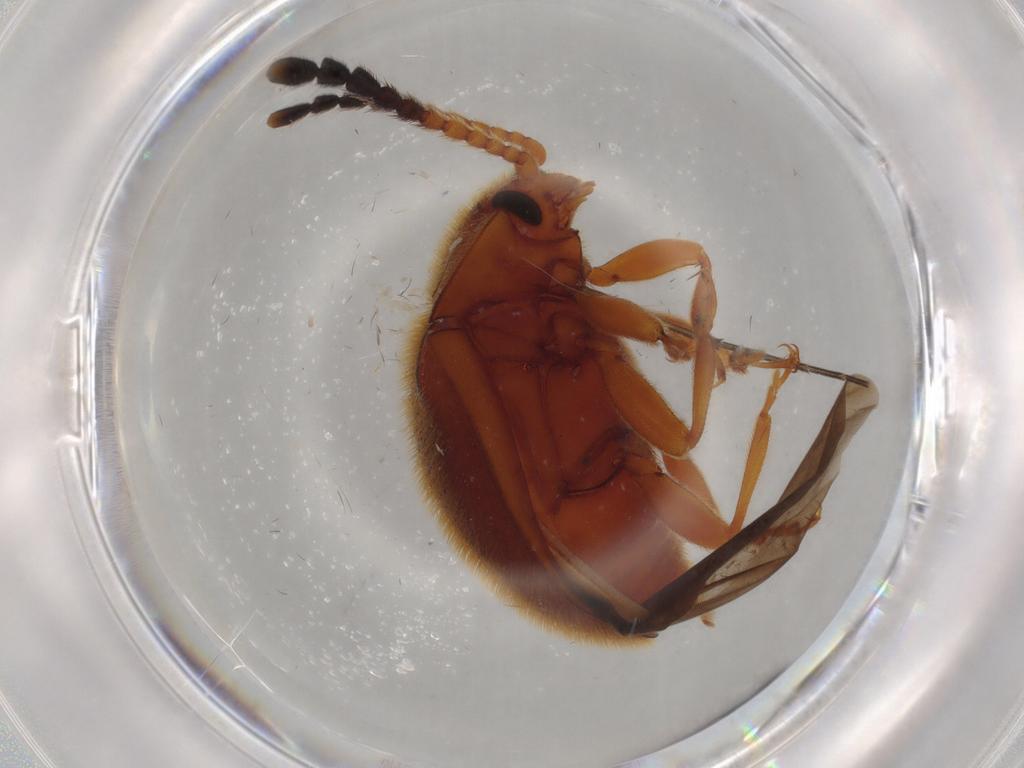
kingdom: Animalia
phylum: Arthropoda
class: Insecta
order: Coleoptera
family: Endomychidae
